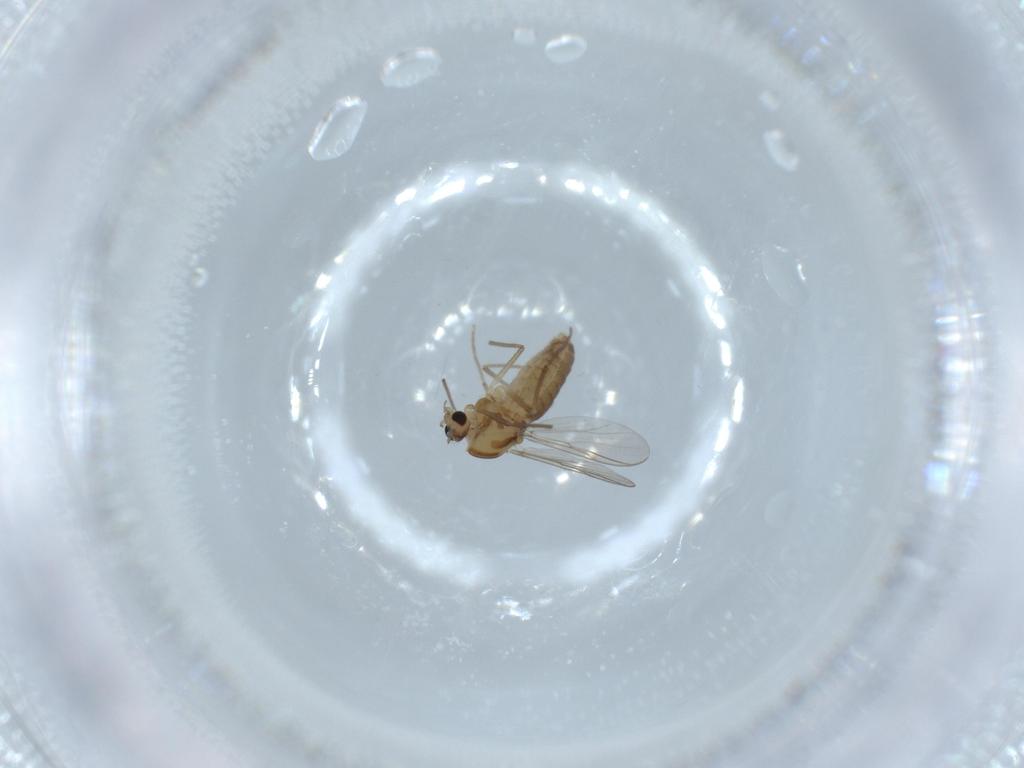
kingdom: Animalia
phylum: Arthropoda
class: Insecta
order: Diptera
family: Chironomidae
